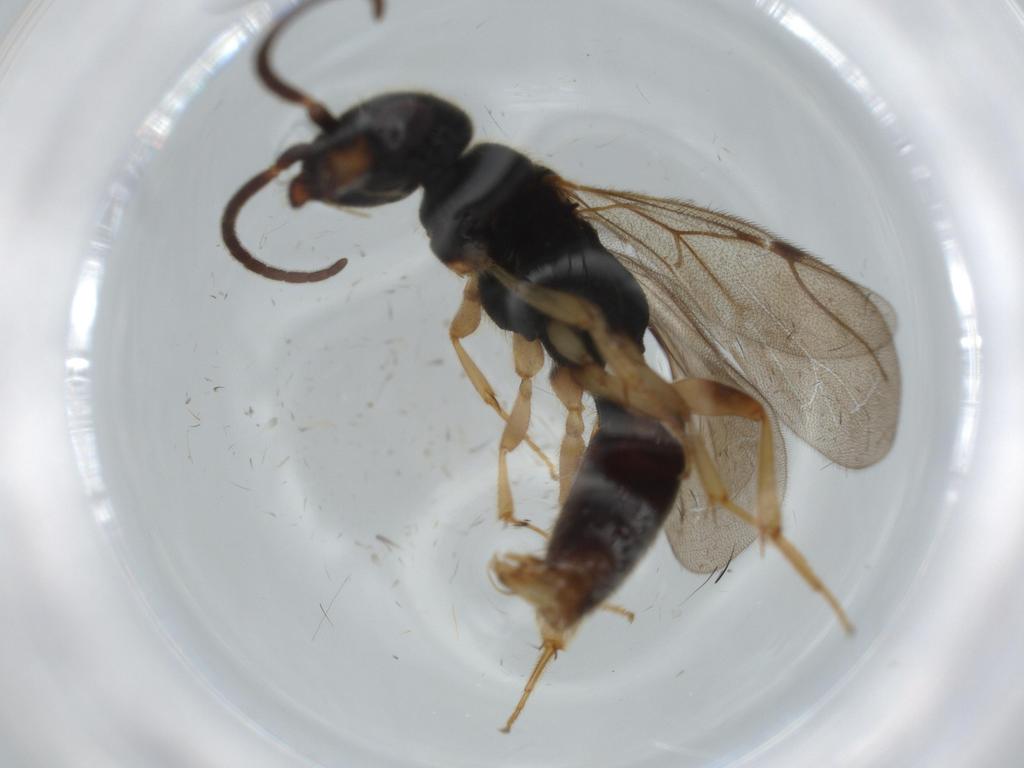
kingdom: Animalia
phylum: Arthropoda
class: Insecta
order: Hymenoptera
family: Bethylidae
